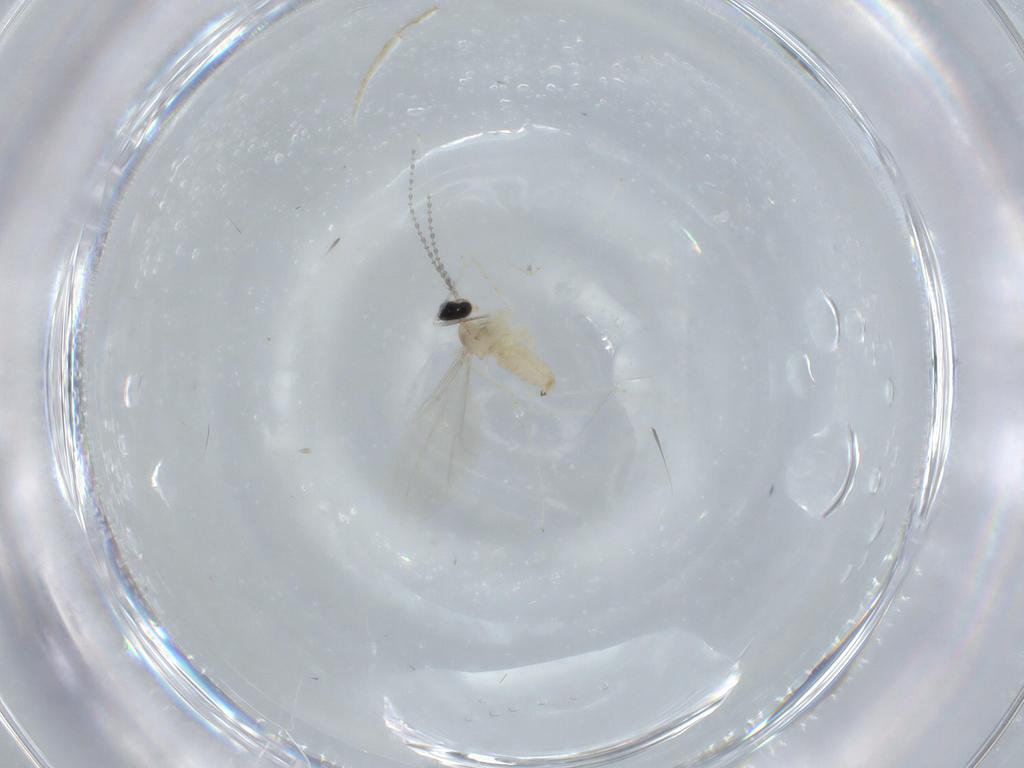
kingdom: Animalia
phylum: Arthropoda
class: Insecta
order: Diptera
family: Cecidomyiidae
